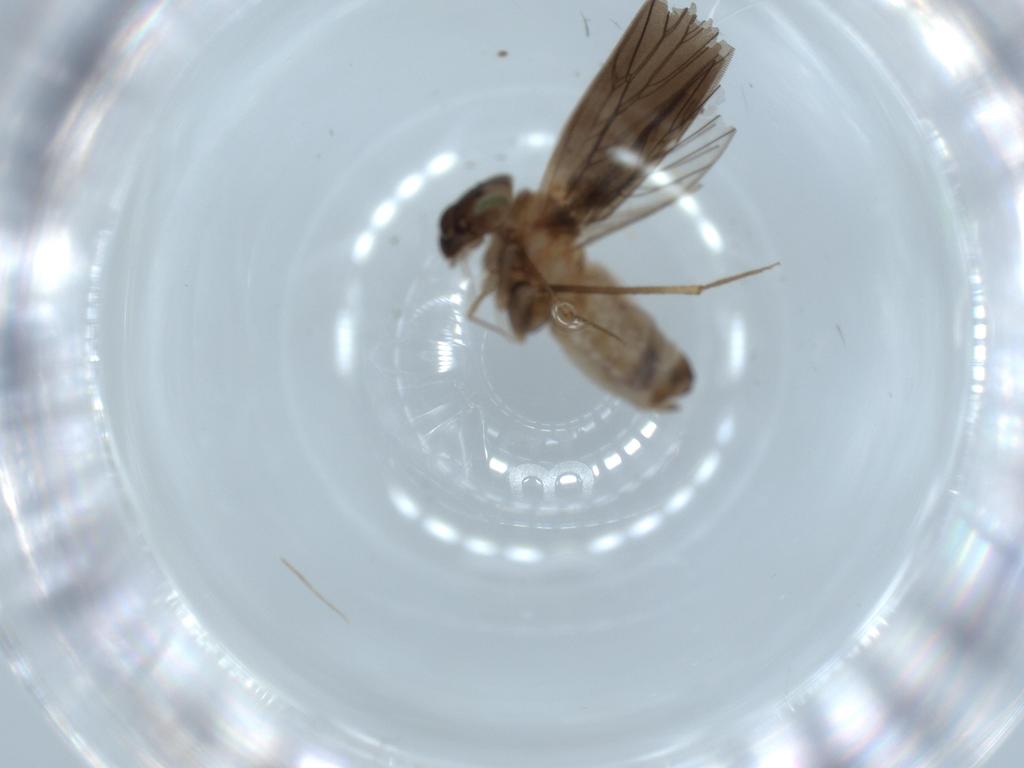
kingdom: Animalia
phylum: Arthropoda
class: Insecta
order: Psocodea
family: Lepidopsocidae
